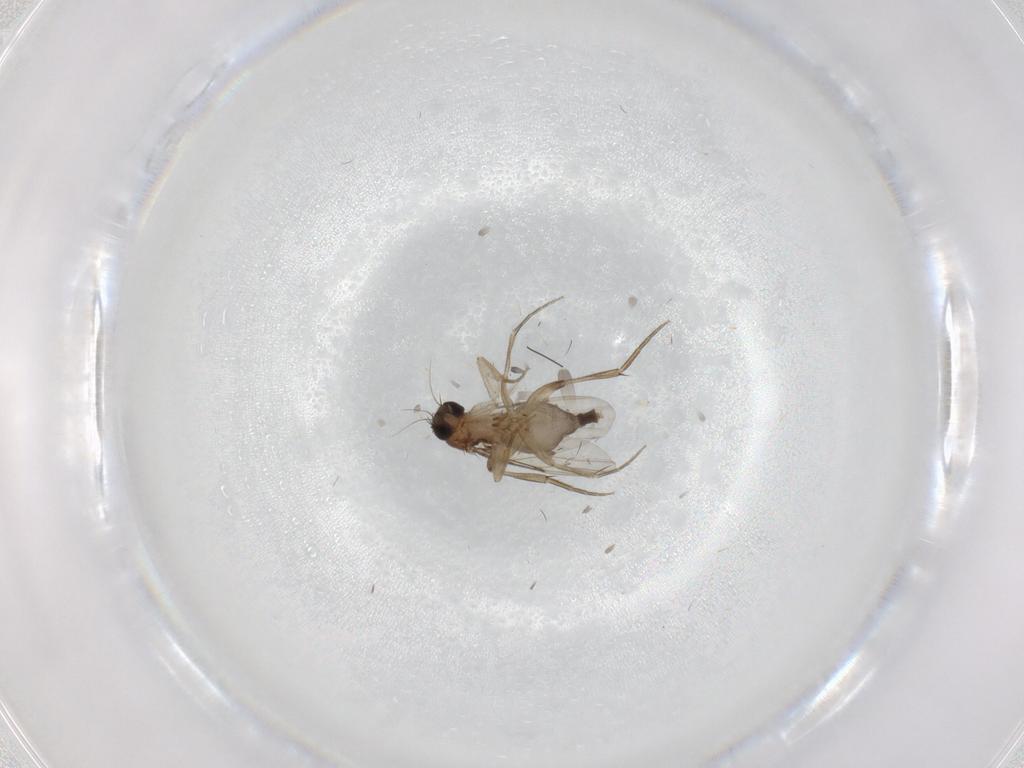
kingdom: Animalia
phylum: Arthropoda
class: Insecta
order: Diptera
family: Phoridae
